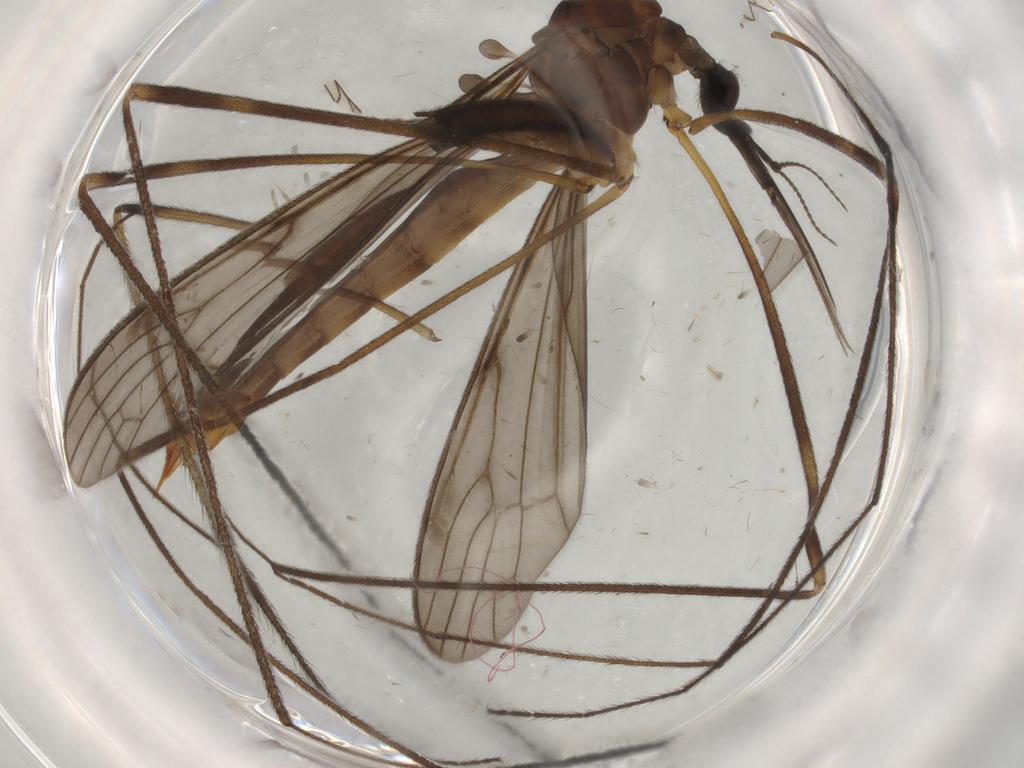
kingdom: Animalia
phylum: Arthropoda
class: Insecta
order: Diptera
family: Limoniidae
